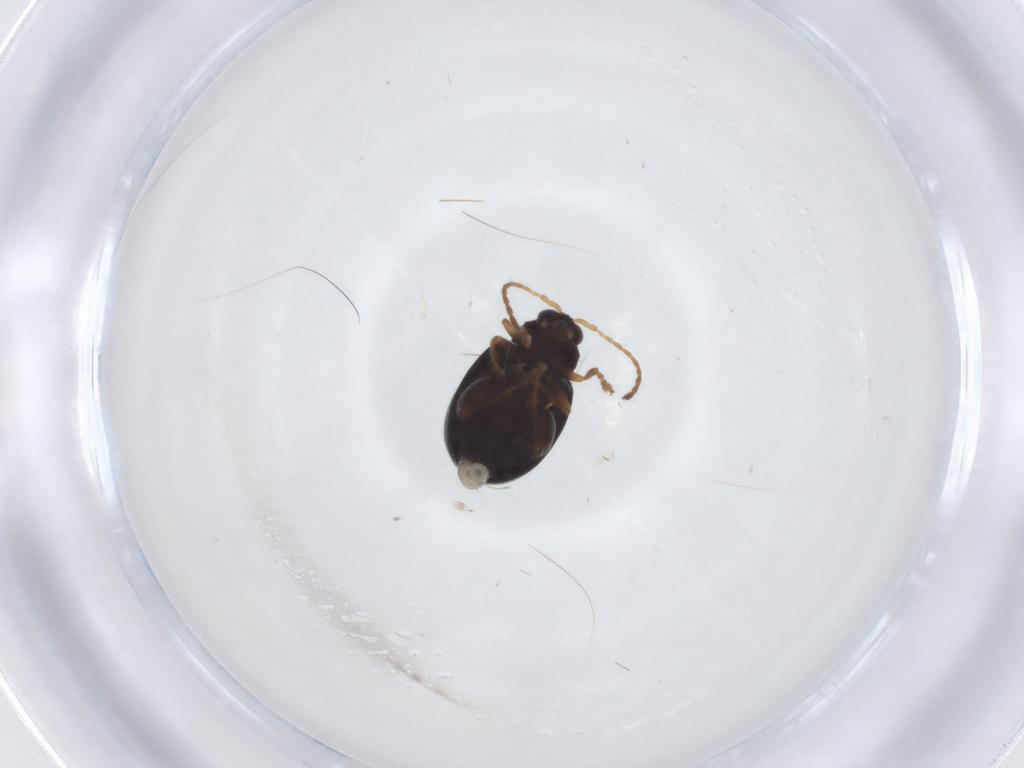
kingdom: Animalia
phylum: Arthropoda
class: Insecta
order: Coleoptera
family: Chrysomelidae
